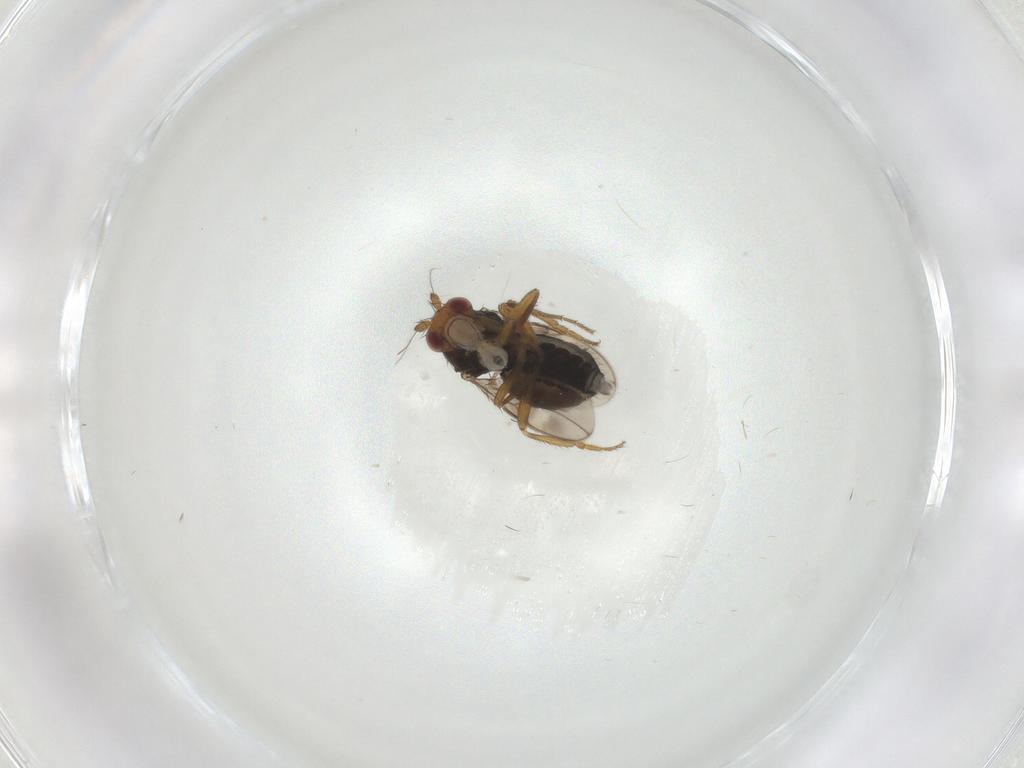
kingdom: Animalia
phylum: Arthropoda
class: Insecta
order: Diptera
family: Sphaeroceridae
